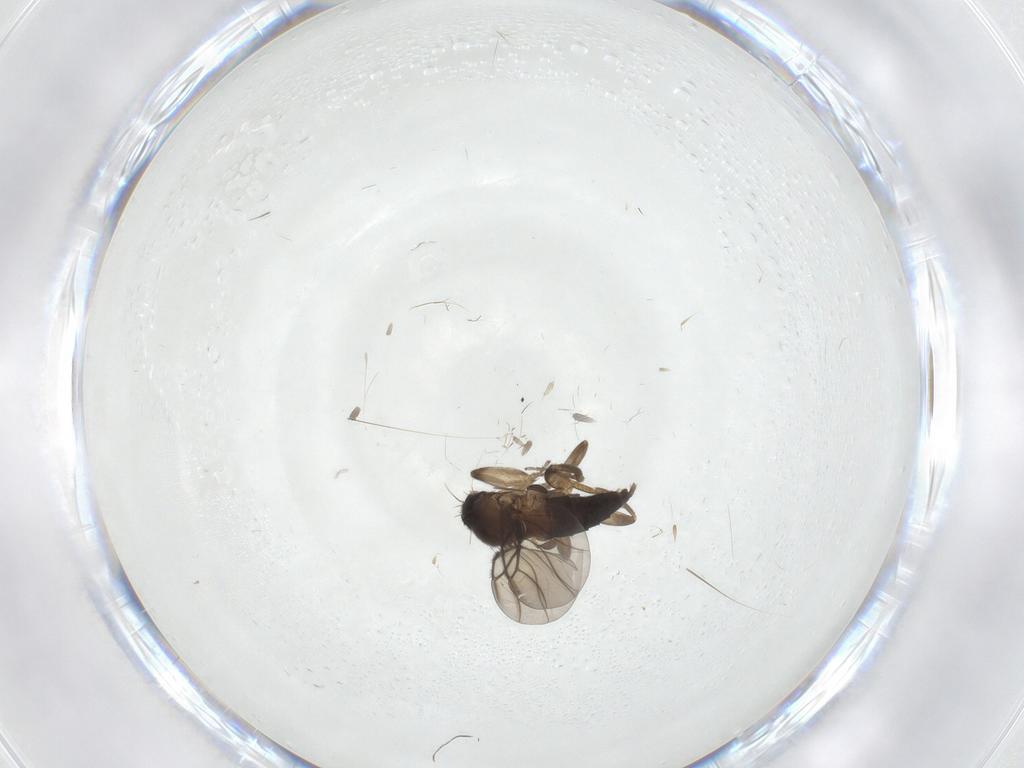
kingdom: Animalia
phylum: Arthropoda
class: Insecta
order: Diptera
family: Phoridae
